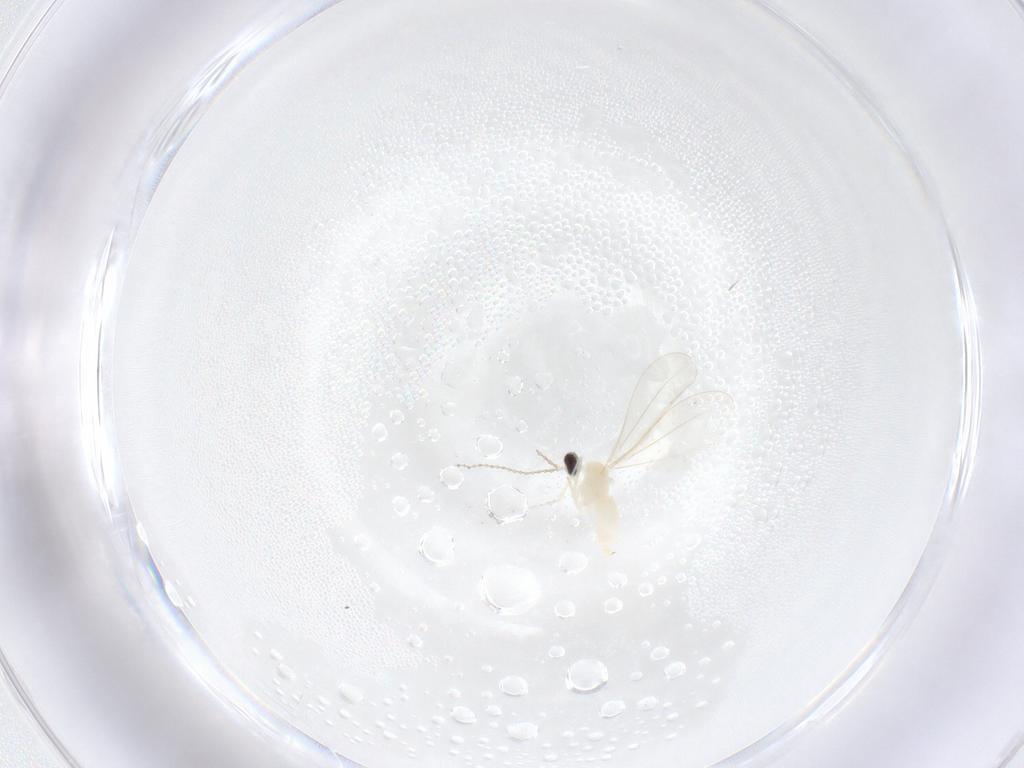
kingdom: Animalia
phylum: Arthropoda
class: Insecta
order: Diptera
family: Cecidomyiidae
